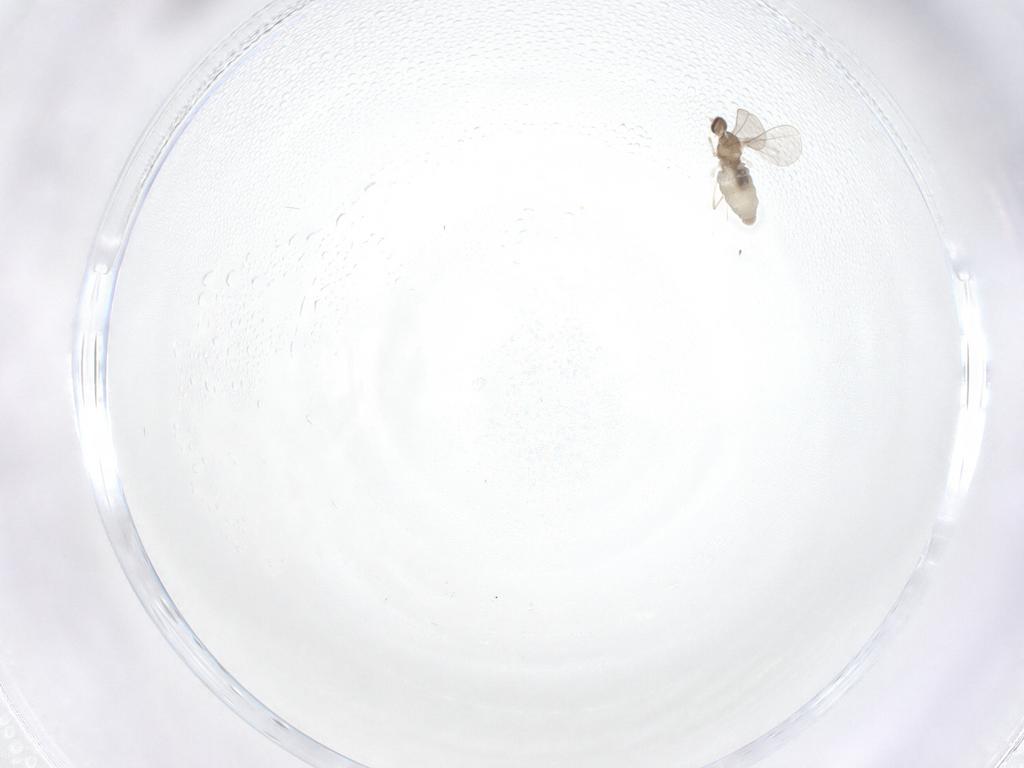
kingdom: Animalia
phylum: Arthropoda
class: Insecta
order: Diptera
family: Cecidomyiidae
